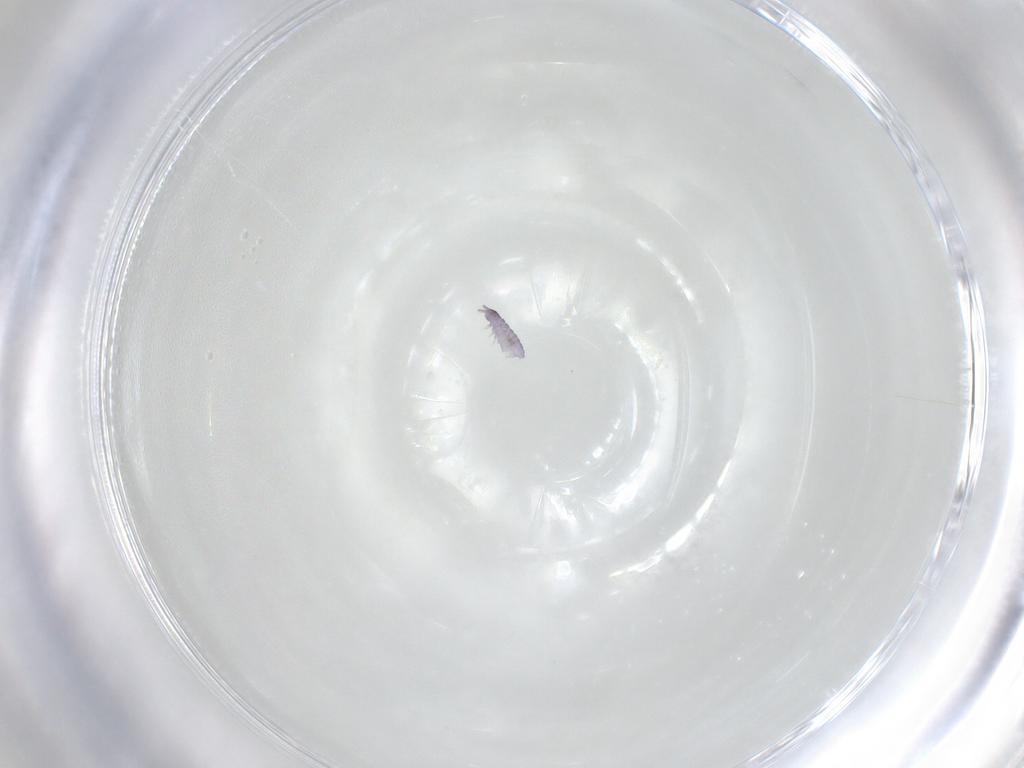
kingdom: Animalia
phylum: Arthropoda
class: Collembola
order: Poduromorpha
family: Neanuridae
